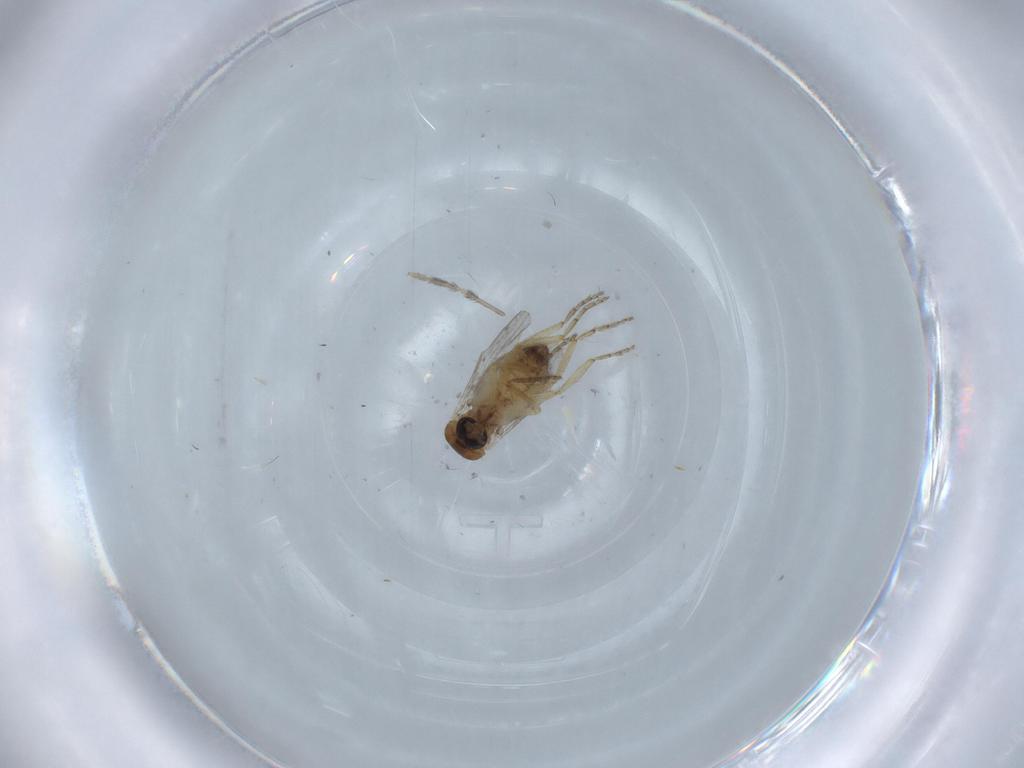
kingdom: Animalia
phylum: Arthropoda
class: Insecta
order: Diptera
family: Ceratopogonidae
